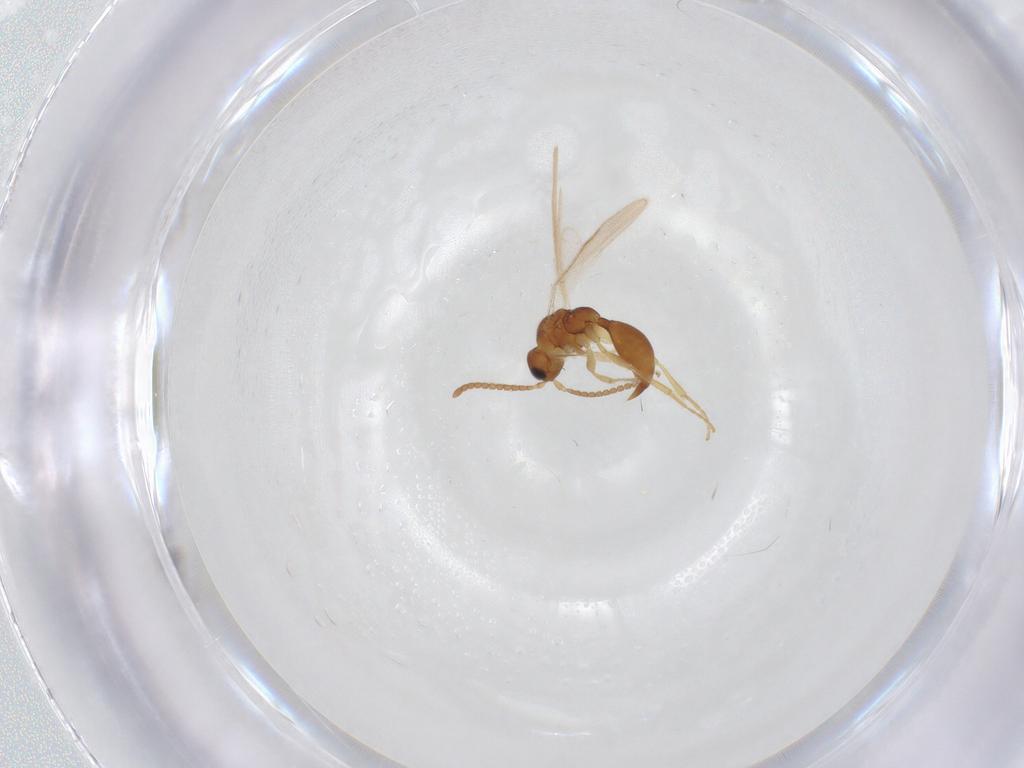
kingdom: Animalia
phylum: Arthropoda
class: Insecta
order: Hymenoptera
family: Formicidae
